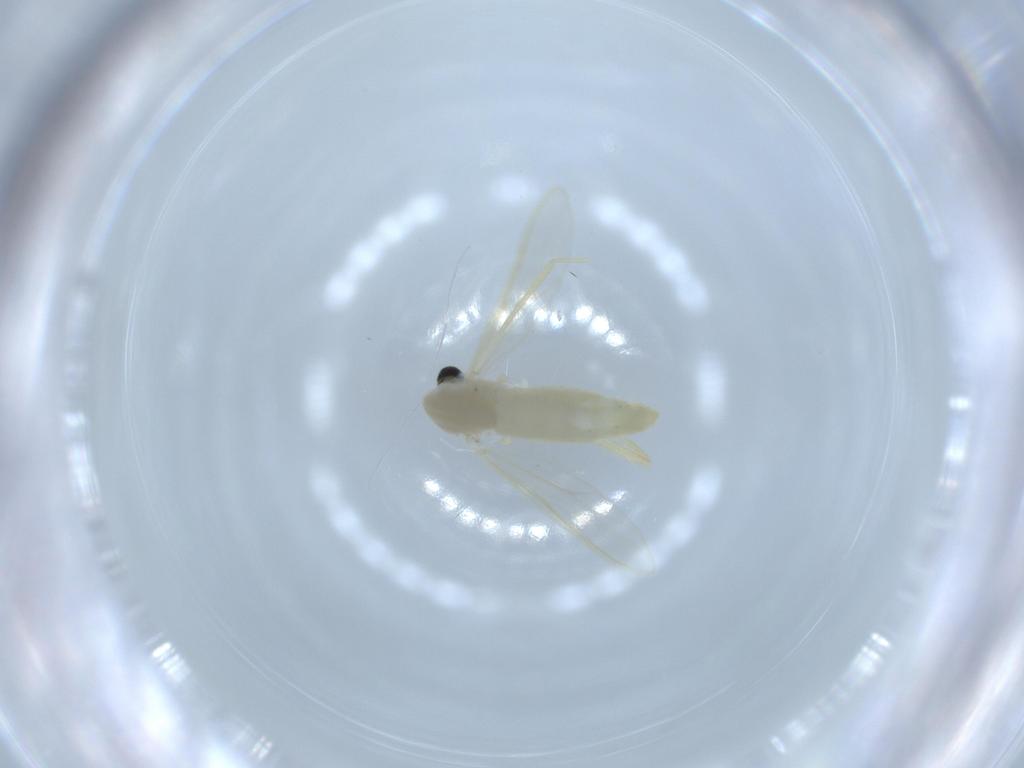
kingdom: Animalia
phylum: Arthropoda
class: Insecta
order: Diptera
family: Chironomidae
